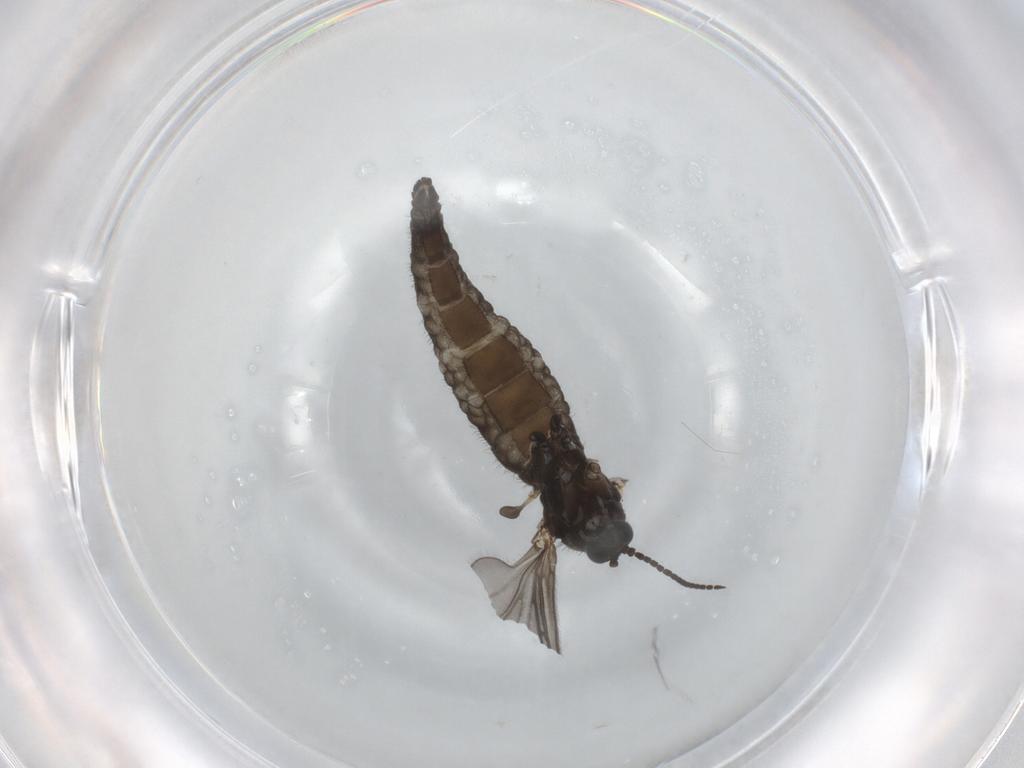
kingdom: Animalia
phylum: Arthropoda
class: Insecta
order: Diptera
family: Sciaridae
